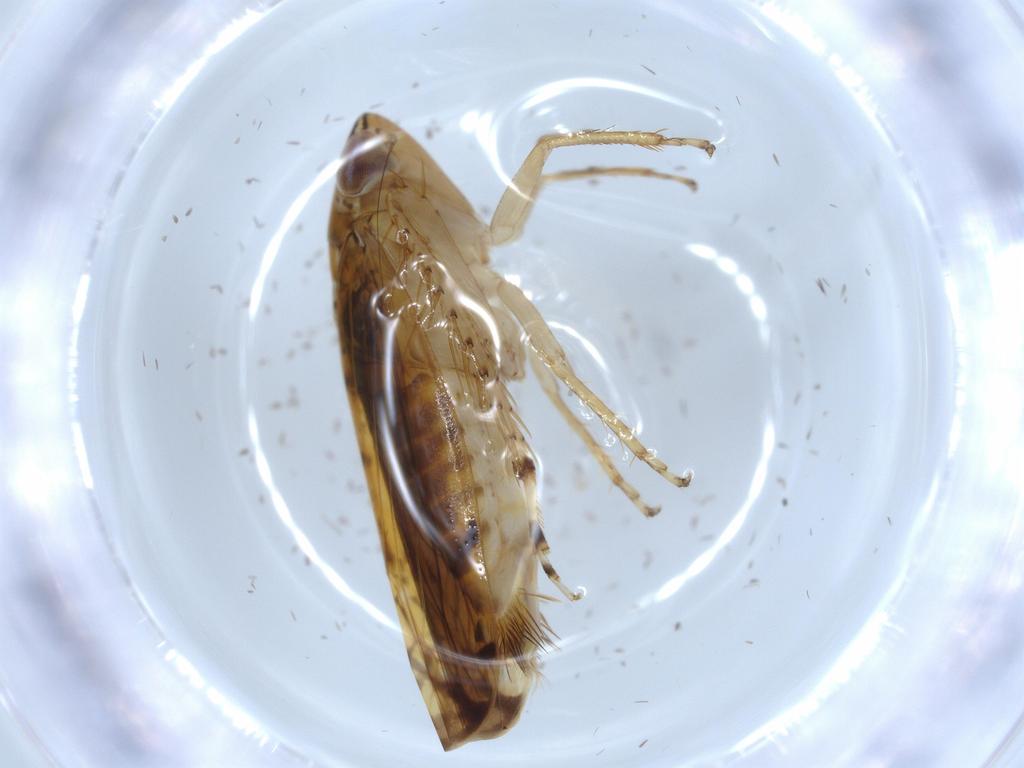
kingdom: Animalia
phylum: Arthropoda
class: Insecta
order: Hemiptera
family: Cicadellidae
